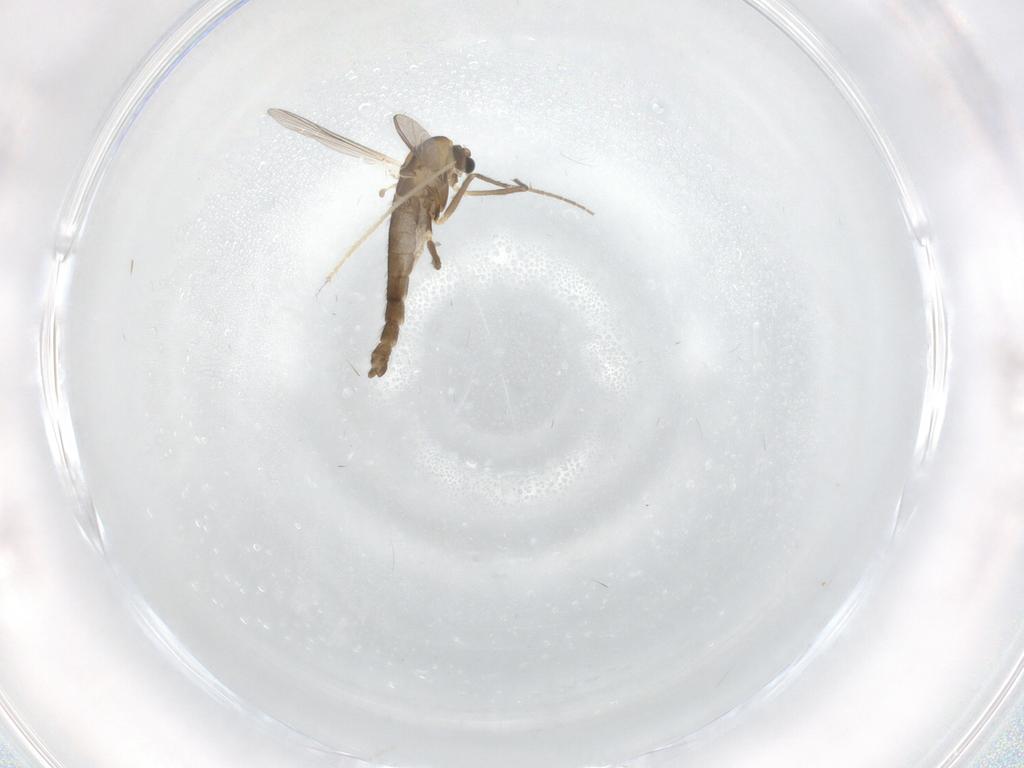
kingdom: Animalia
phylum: Arthropoda
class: Insecta
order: Diptera
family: Chironomidae
